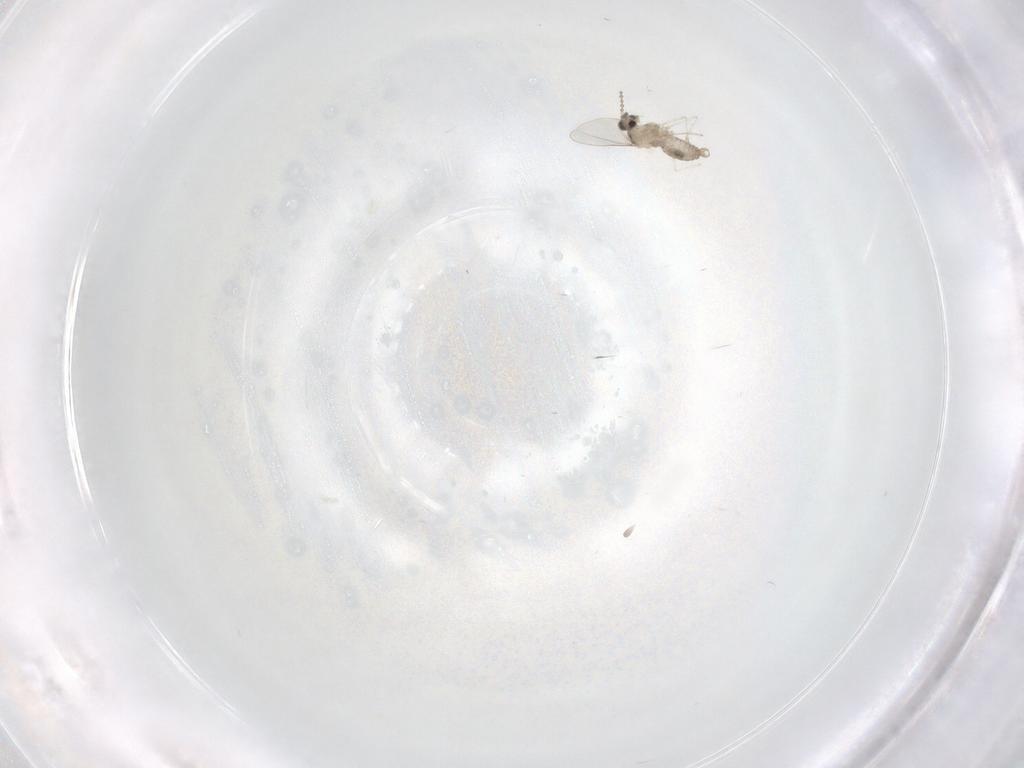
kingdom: Animalia
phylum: Arthropoda
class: Insecta
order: Diptera
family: Cecidomyiidae
